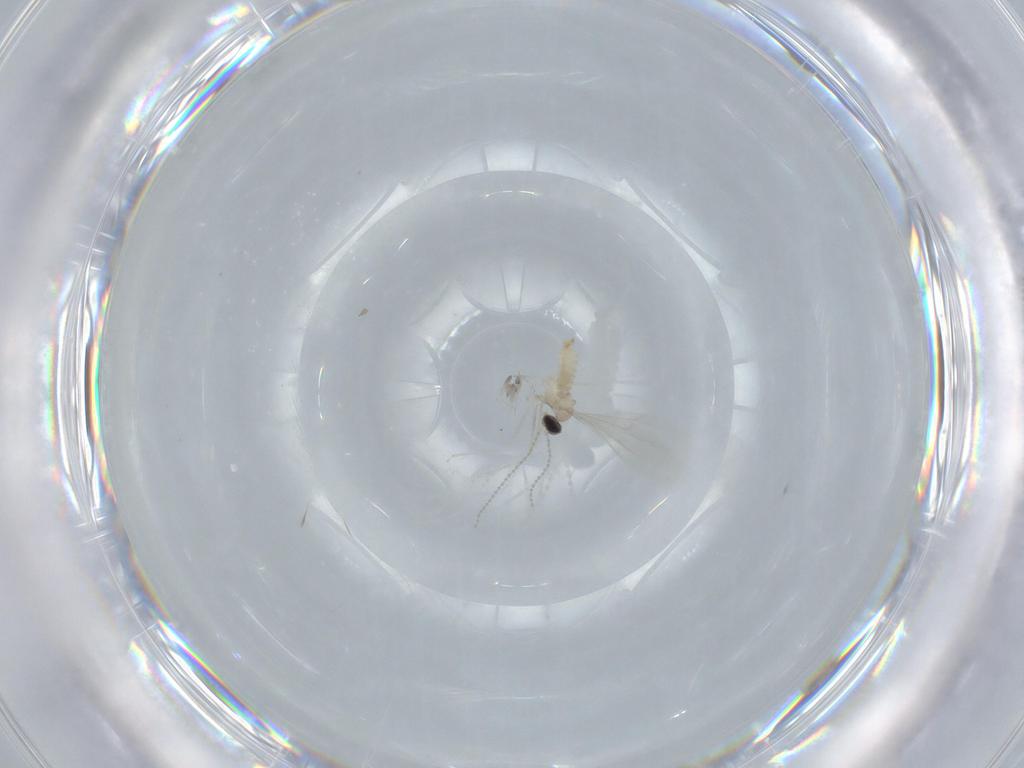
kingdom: Animalia
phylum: Arthropoda
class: Insecta
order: Diptera
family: Cecidomyiidae
